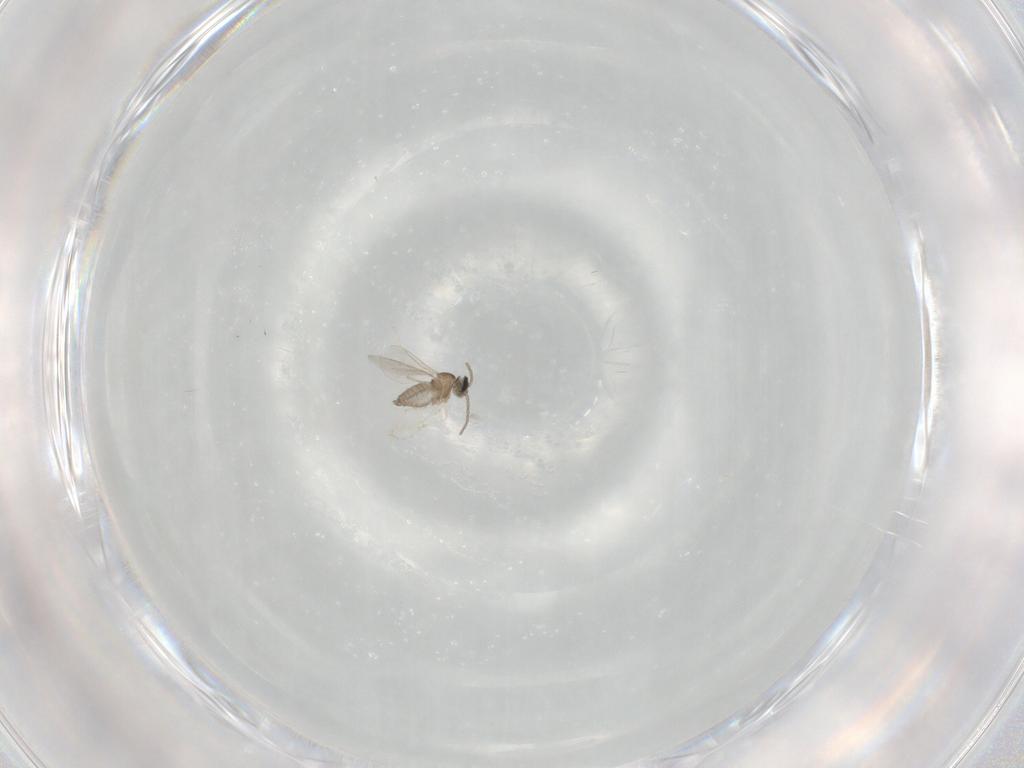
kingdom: Animalia
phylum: Arthropoda
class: Insecta
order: Diptera
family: Cecidomyiidae
